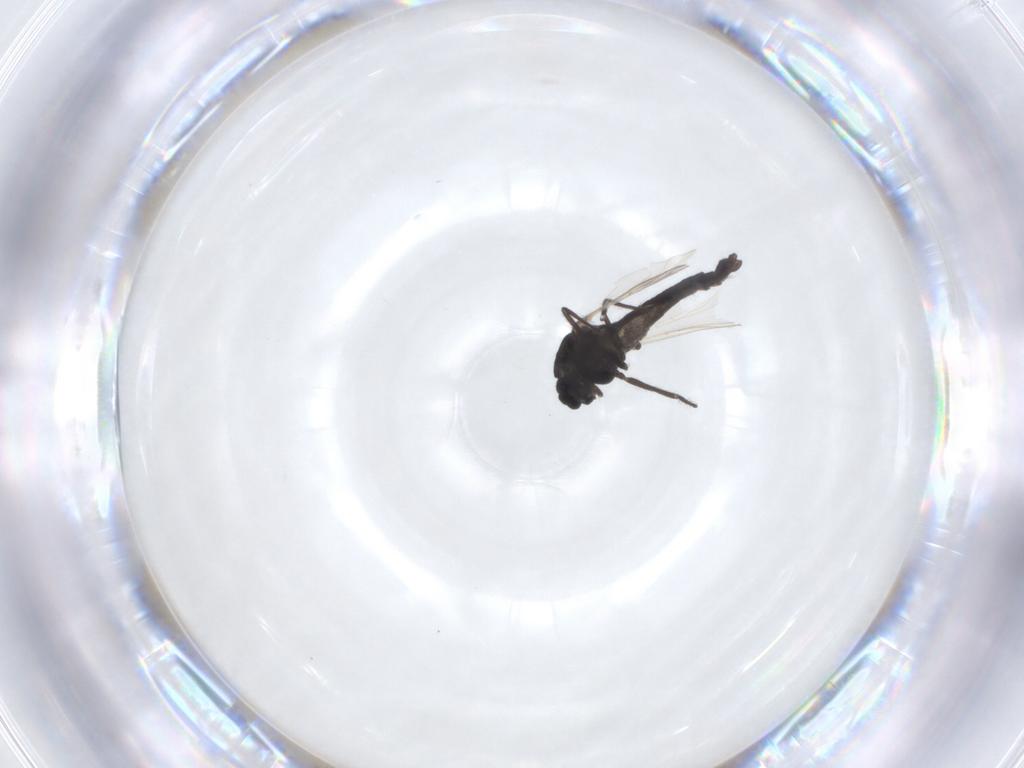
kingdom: Animalia
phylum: Arthropoda
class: Insecta
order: Diptera
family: Chironomidae
